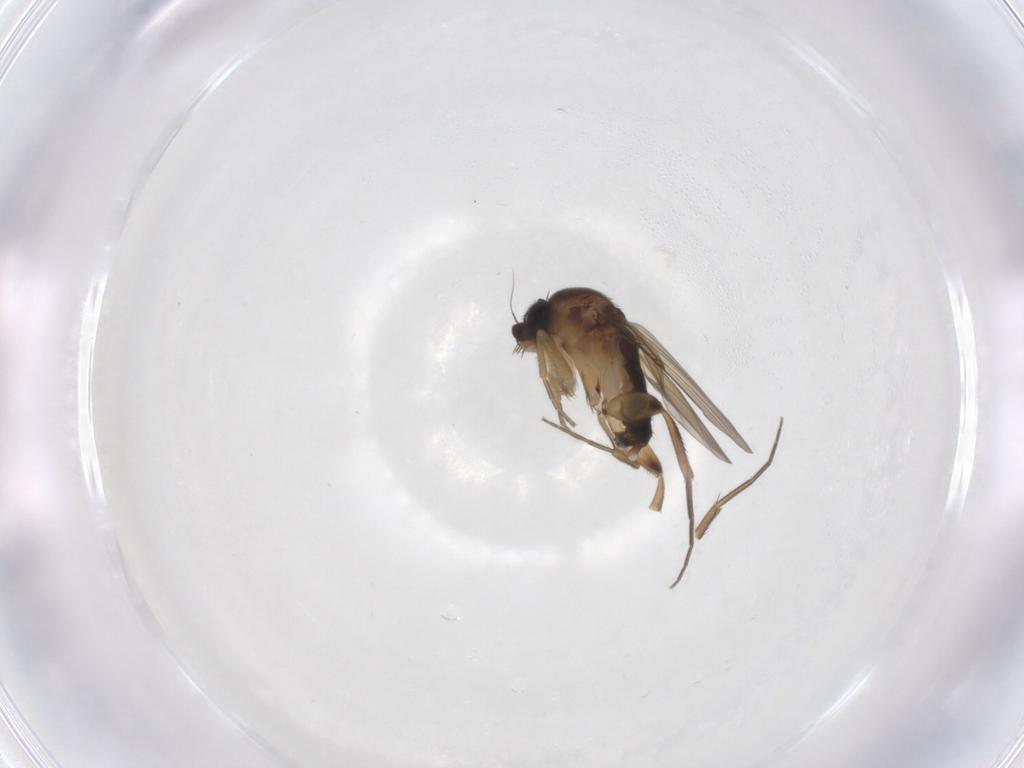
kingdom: Animalia
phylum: Arthropoda
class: Insecta
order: Diptera
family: Phoridae
